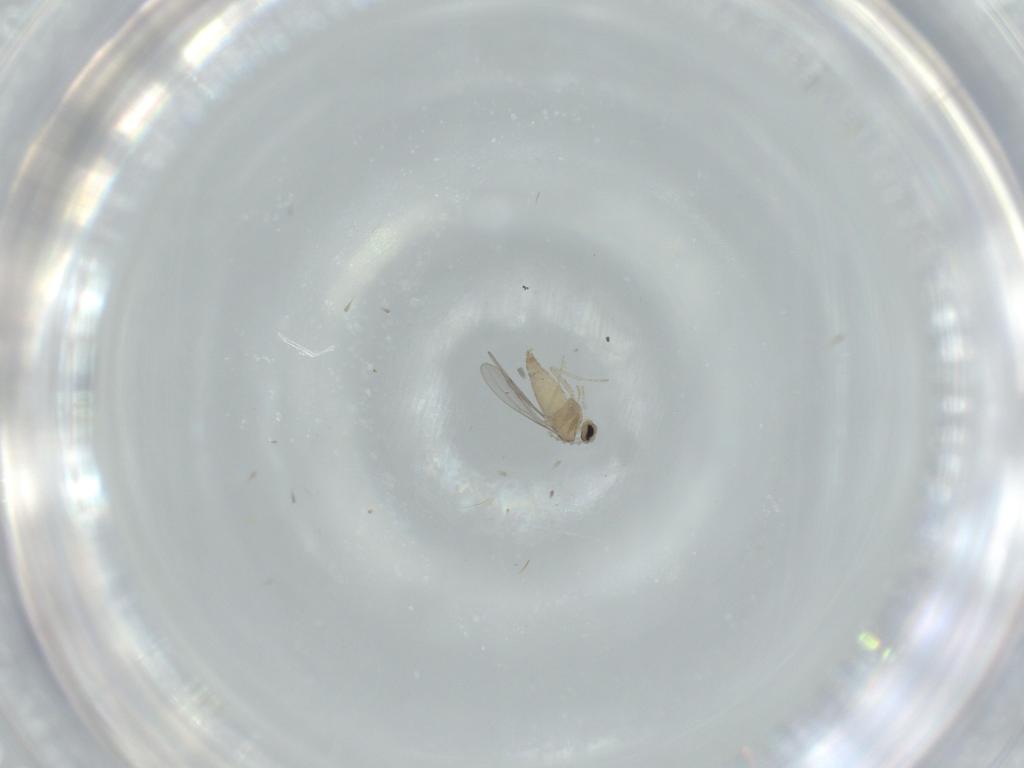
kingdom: Animalia
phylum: Arthropoda
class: Insecta
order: Diptera
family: Cecidomyiidae
